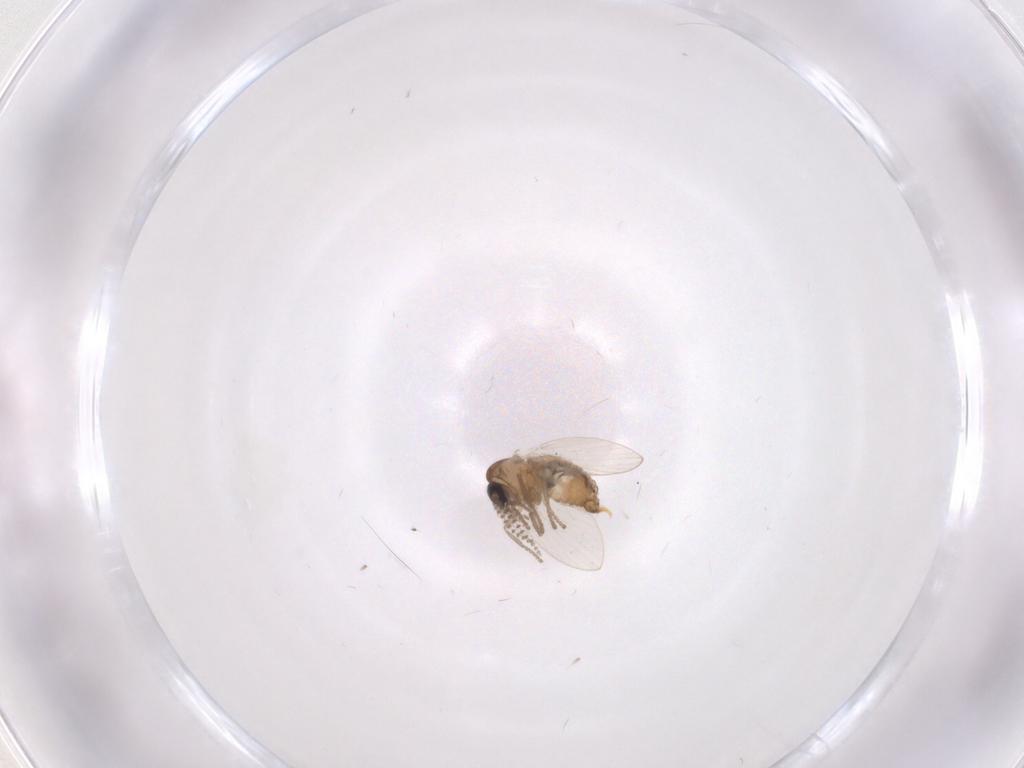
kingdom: Animalia
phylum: Arthropoda
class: Insecta
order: Diptera
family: Psychodidae
